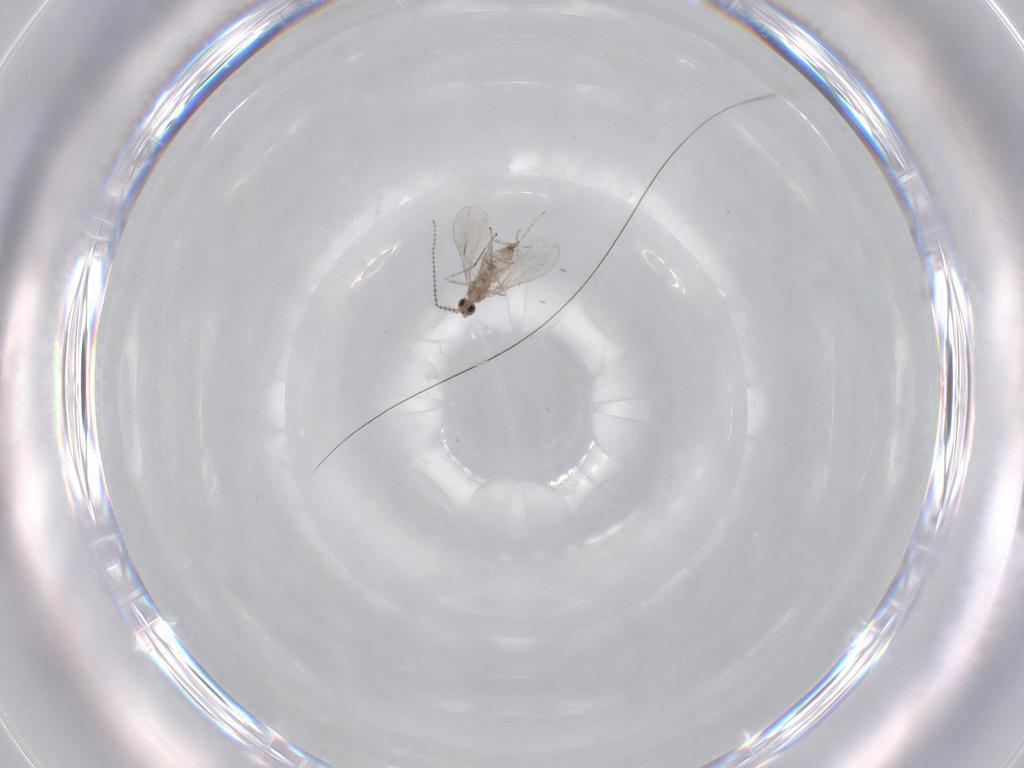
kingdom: Animalia
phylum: Arthropoda
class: Insecta
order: Diptera
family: Cecidomyiidae
